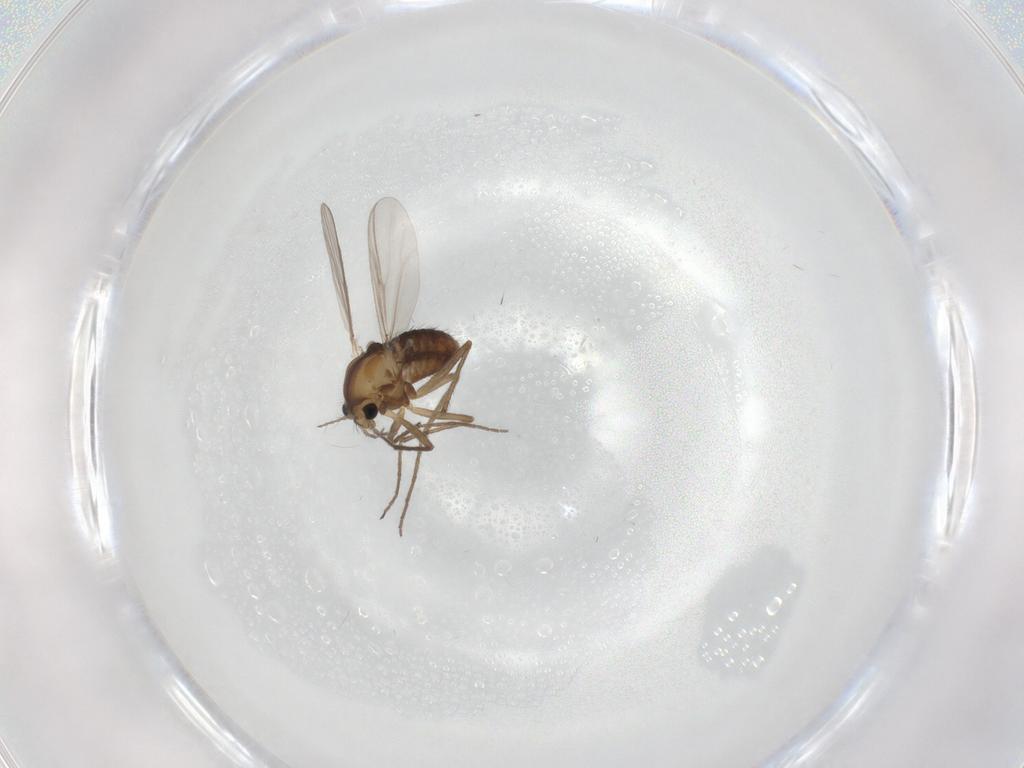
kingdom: Animalia
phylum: Arthropoda
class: Insecta
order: Diptera
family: Chironomidae
